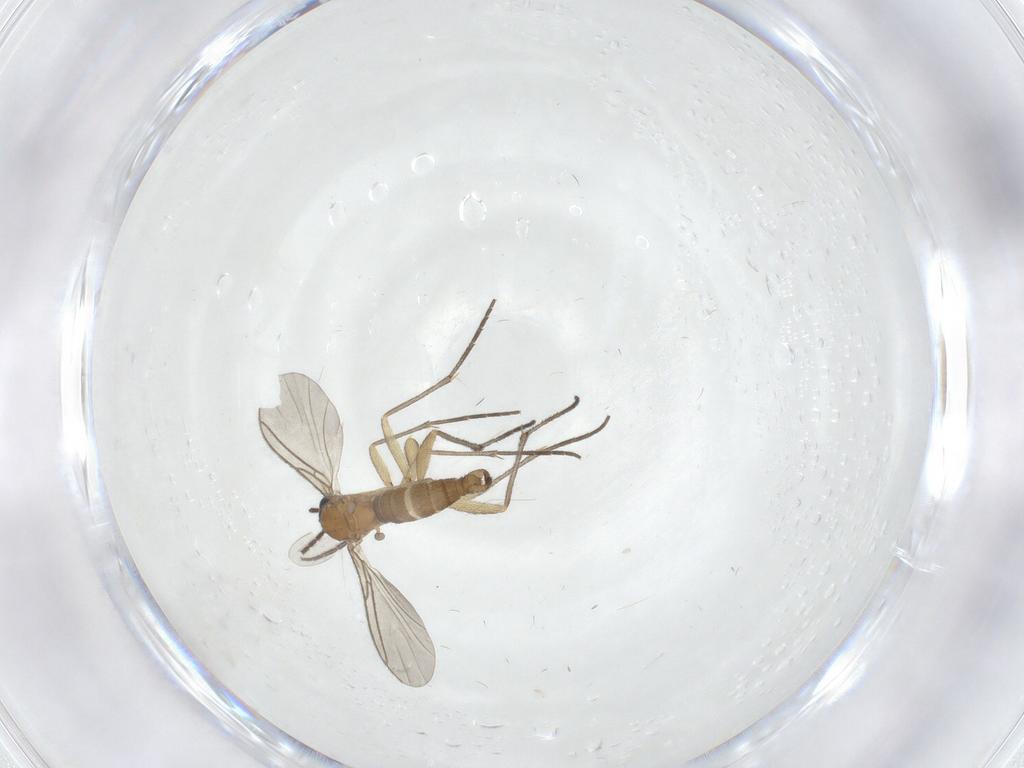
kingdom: Animalia
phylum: Arthropoda
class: Insecta
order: Diptera
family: Sciaridae
